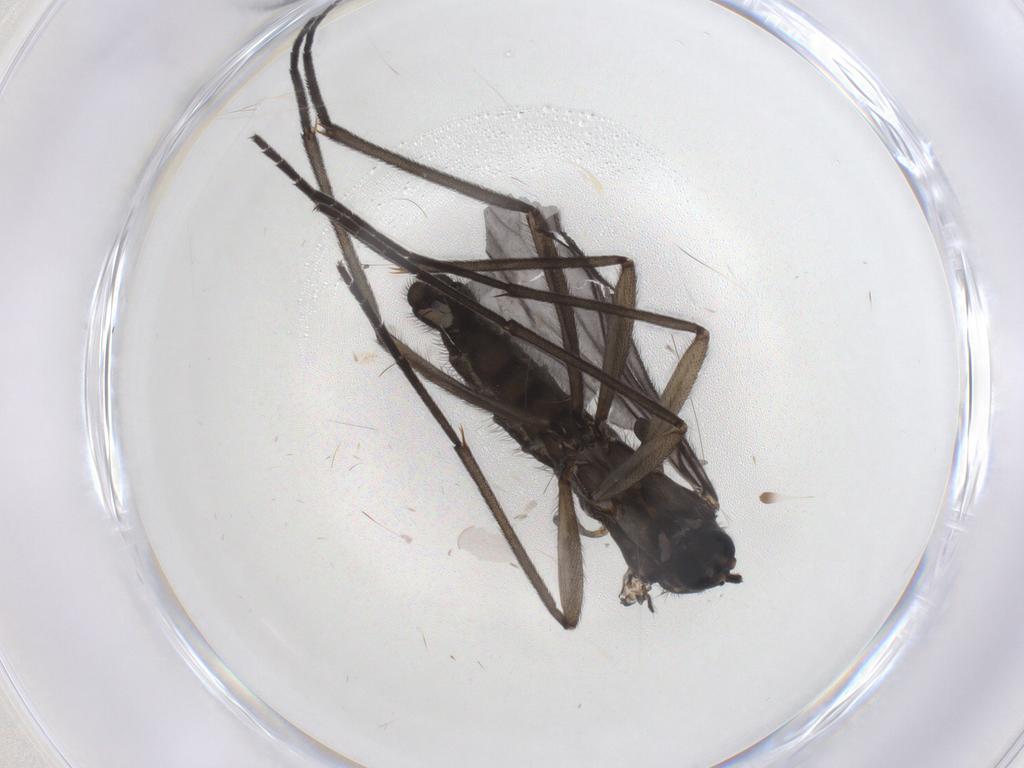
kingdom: Animalia
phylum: Arthropoda
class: Insecta
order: Diptera
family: Sciaridae
